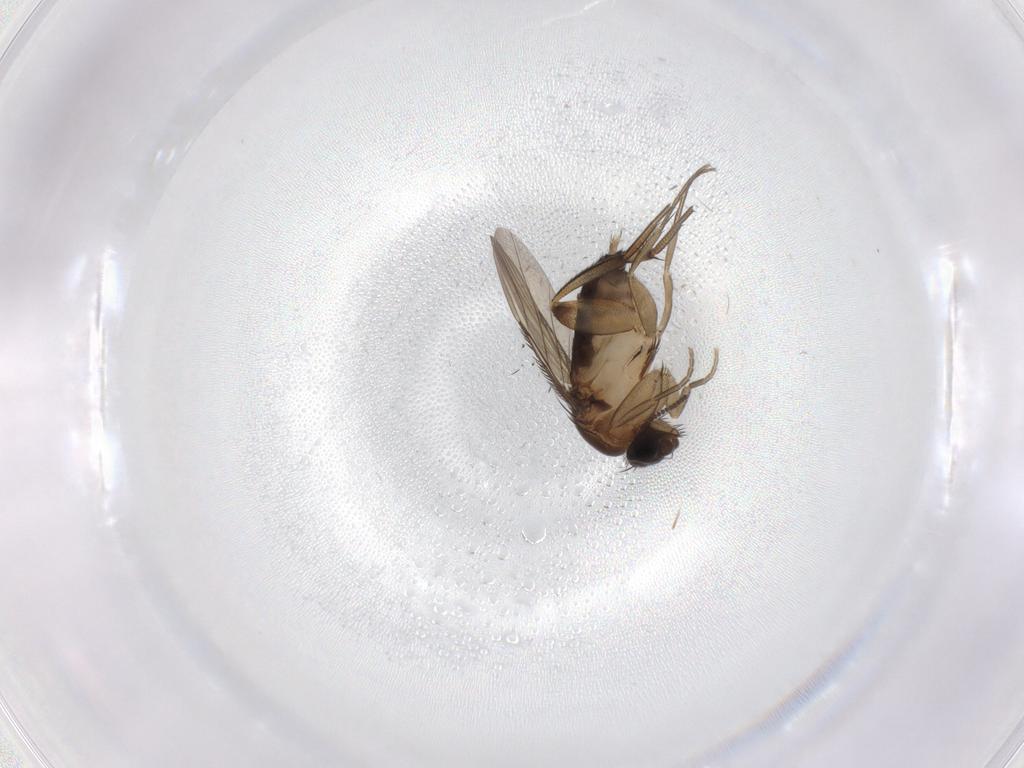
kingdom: Animalia
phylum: Arthropoda
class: Insecta
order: Diptera
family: Phoridae
